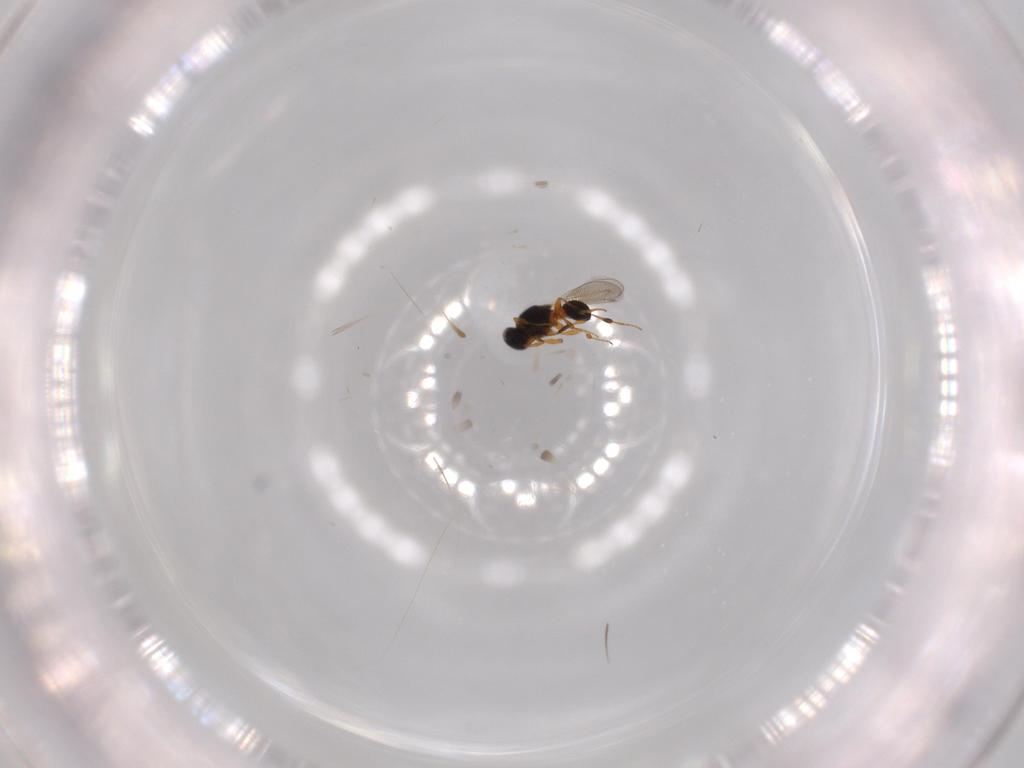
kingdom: Animalia
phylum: Arthropoda
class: Insecta
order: Hymenoptera
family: Platygastridae
